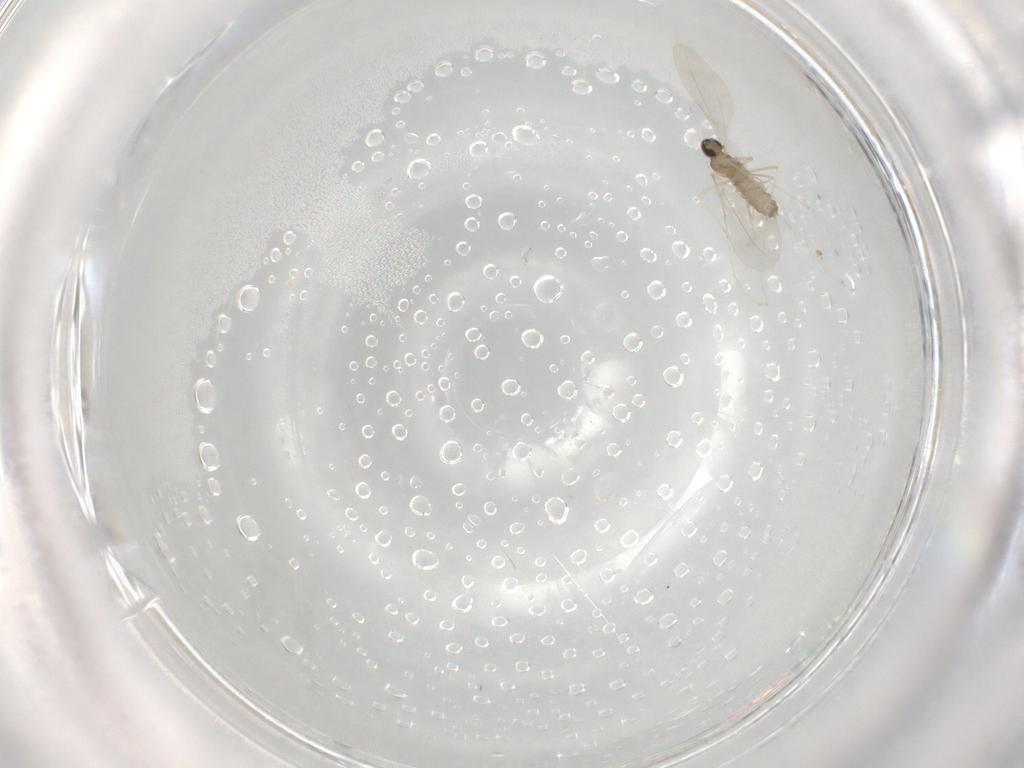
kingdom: Animalia
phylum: Arthropoda
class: Insecta
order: Diptera
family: Cecidomyiidae
